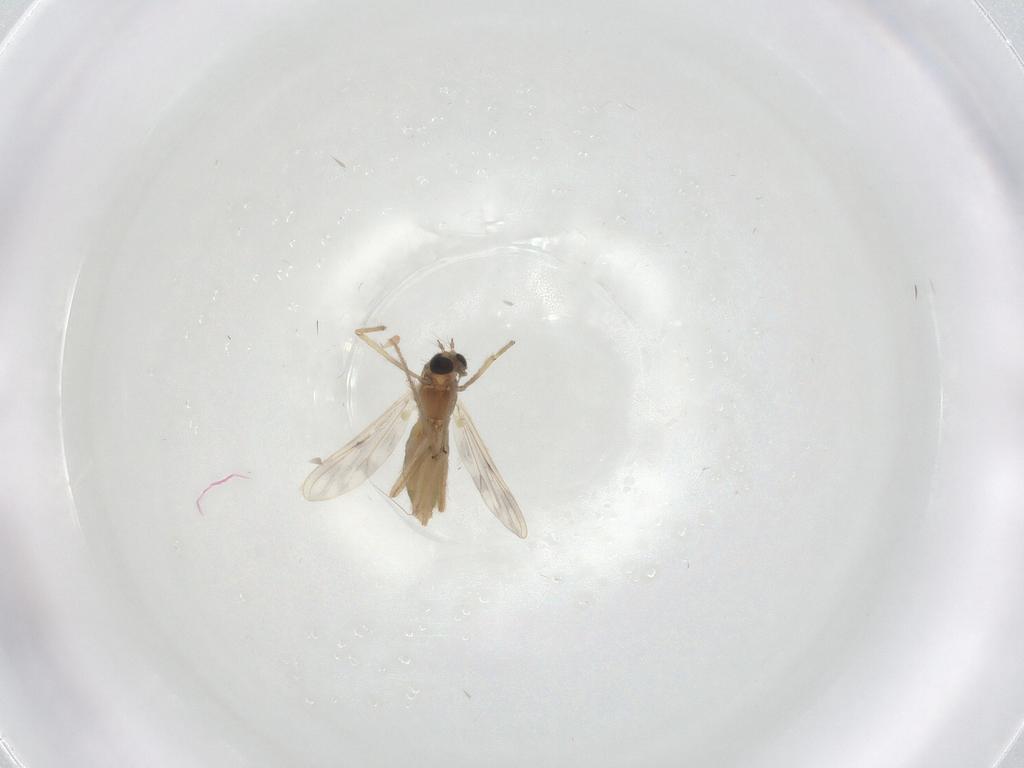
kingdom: Animalia
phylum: Arthropoda
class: Insecta
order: Diptera
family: Chironomidae
